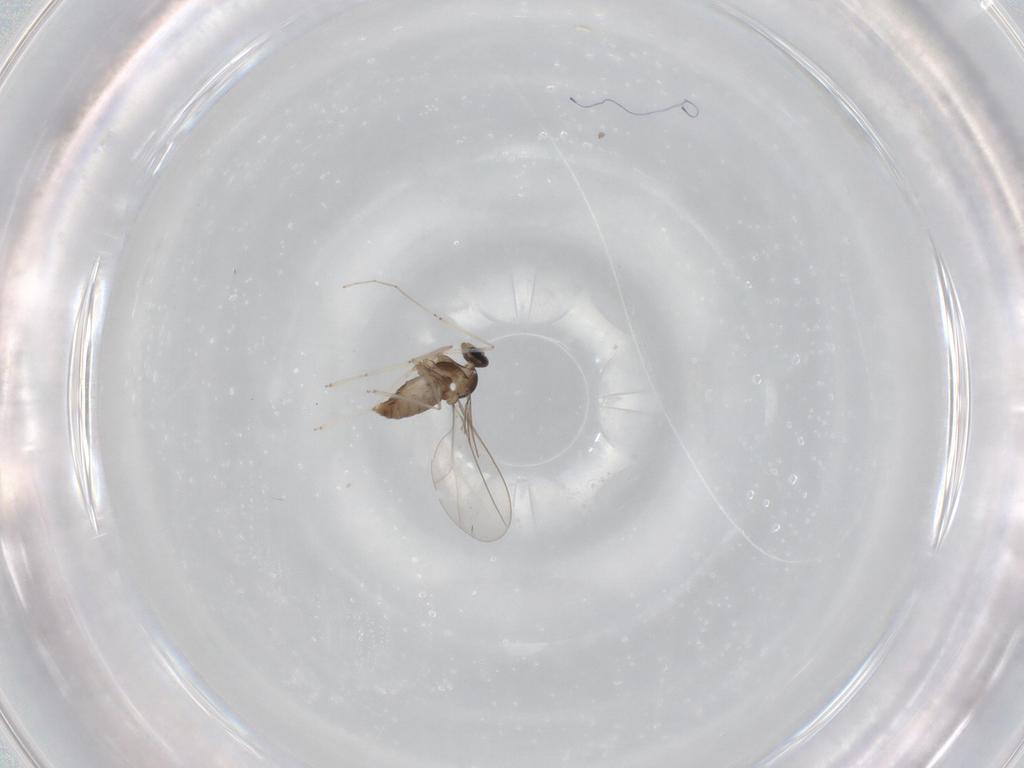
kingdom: Animalia
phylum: Arthropoda
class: Insecta
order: Diptera
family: Cecidomyiidae
